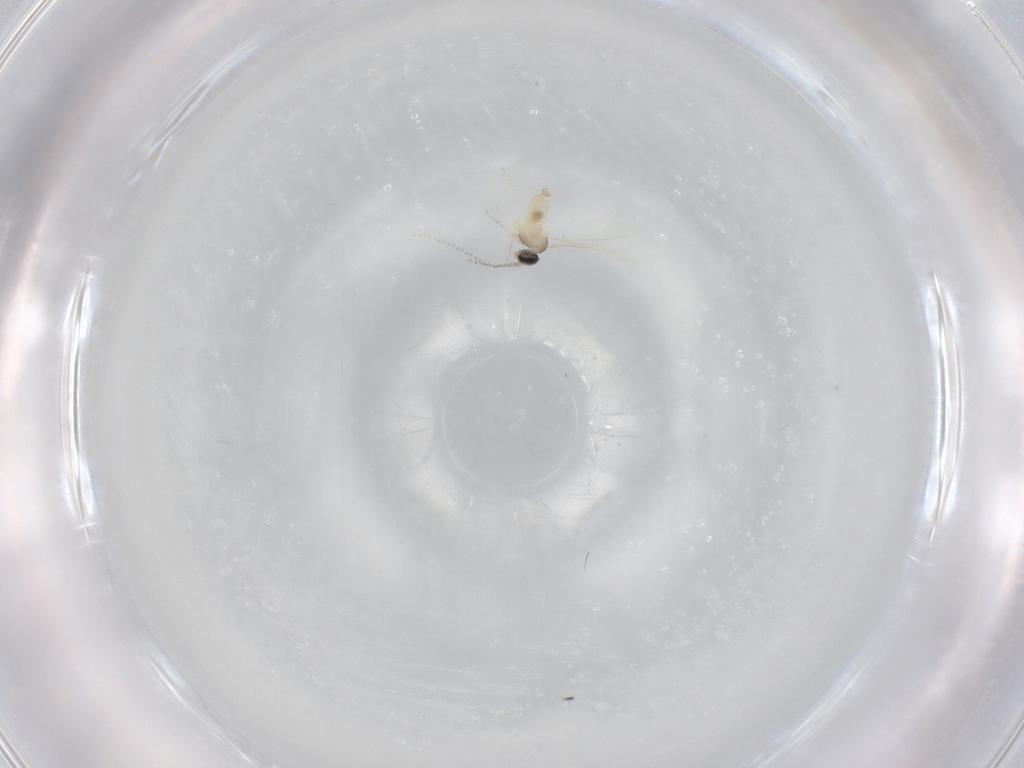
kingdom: Animalia
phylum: Arthropoda
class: Insecta
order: Diptera
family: Cecidomyiidae
